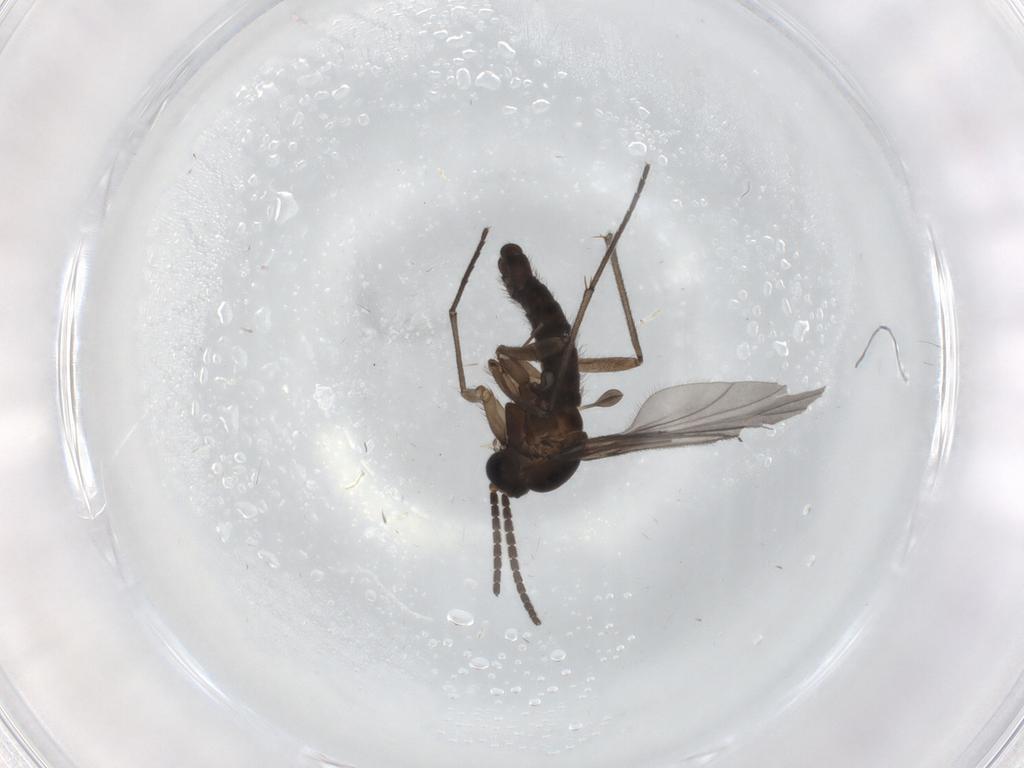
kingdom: Animalia
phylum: Arthropoda
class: Insecta
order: Diptera
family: Sciaridae
